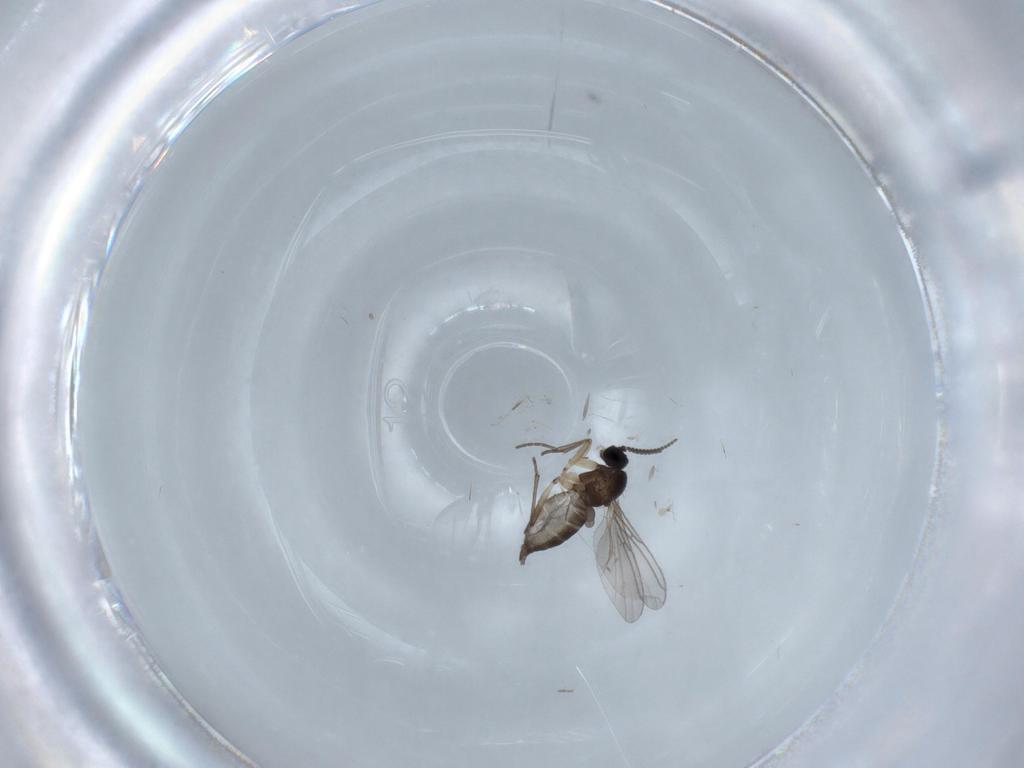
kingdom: Animalia
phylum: Arthropoda
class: Insecta
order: Diptera
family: Sciaridae
